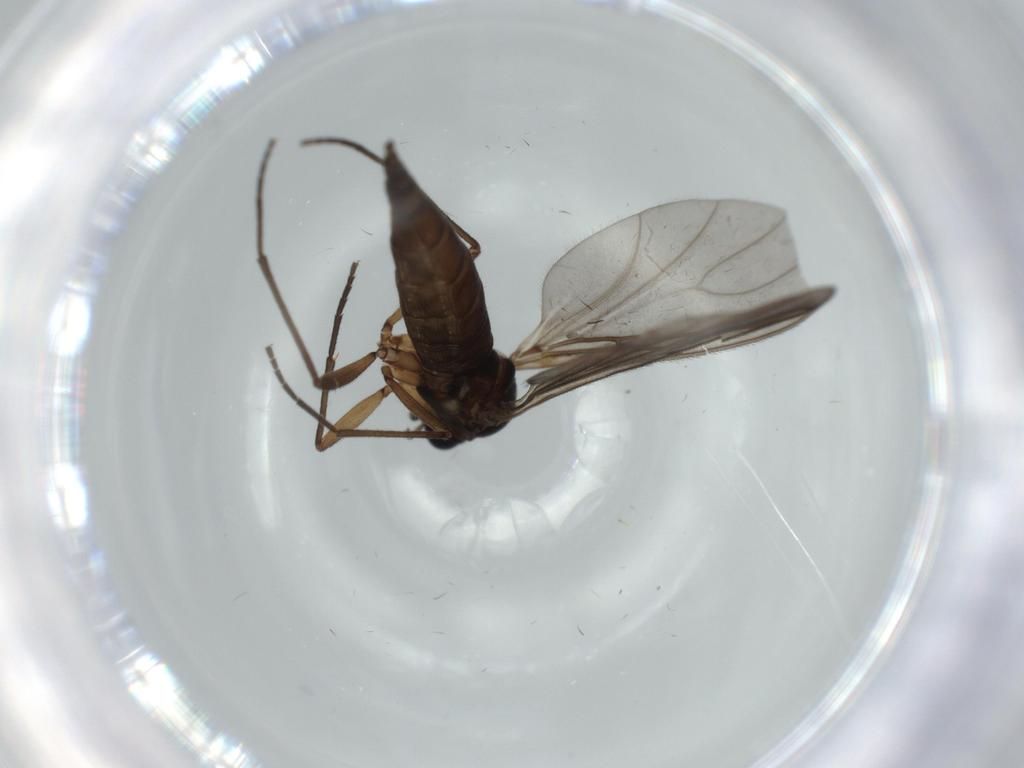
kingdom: Animalia
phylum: Arthropoda
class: Insecta
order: Diptera
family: Sciaridae
